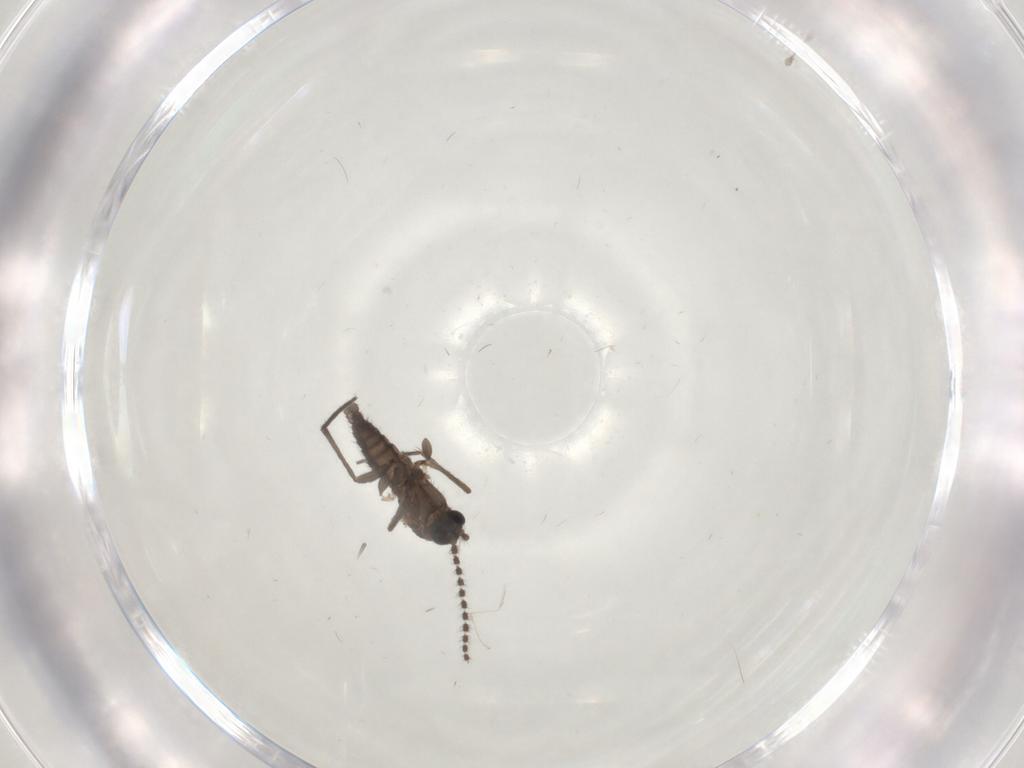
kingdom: Animalia
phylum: Arthropoda
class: Insecta
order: Diptera
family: Sciaridae
